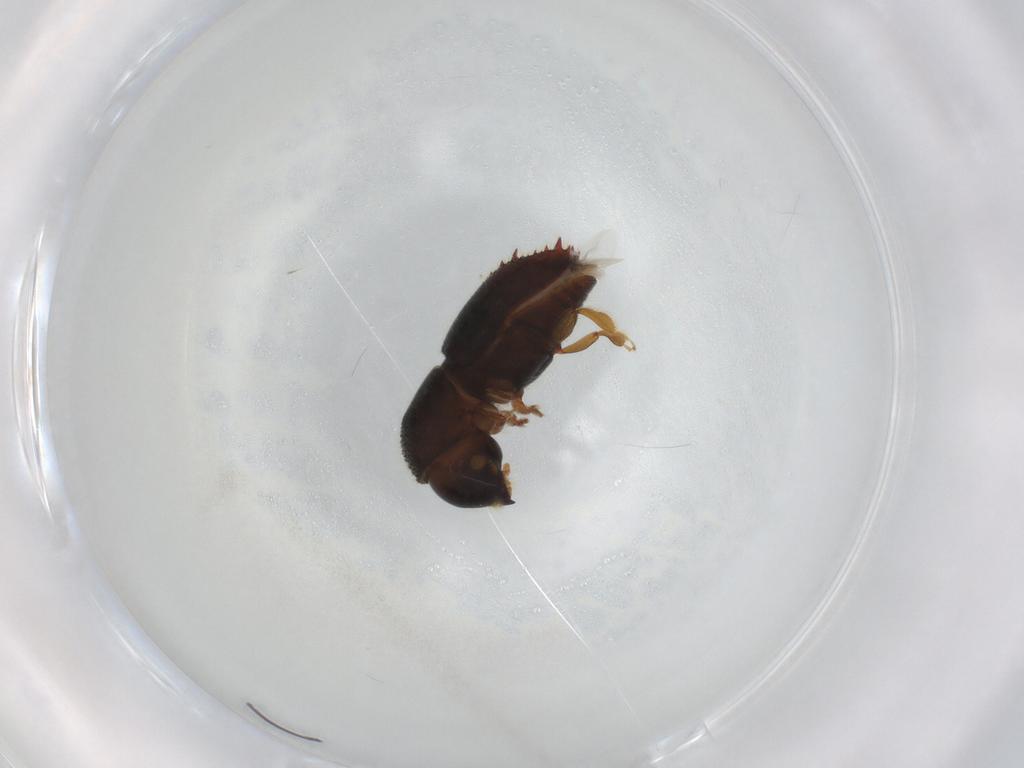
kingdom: Animalia
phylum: Arthropoda
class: Insecta
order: Coleoptera
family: Curculionidae
